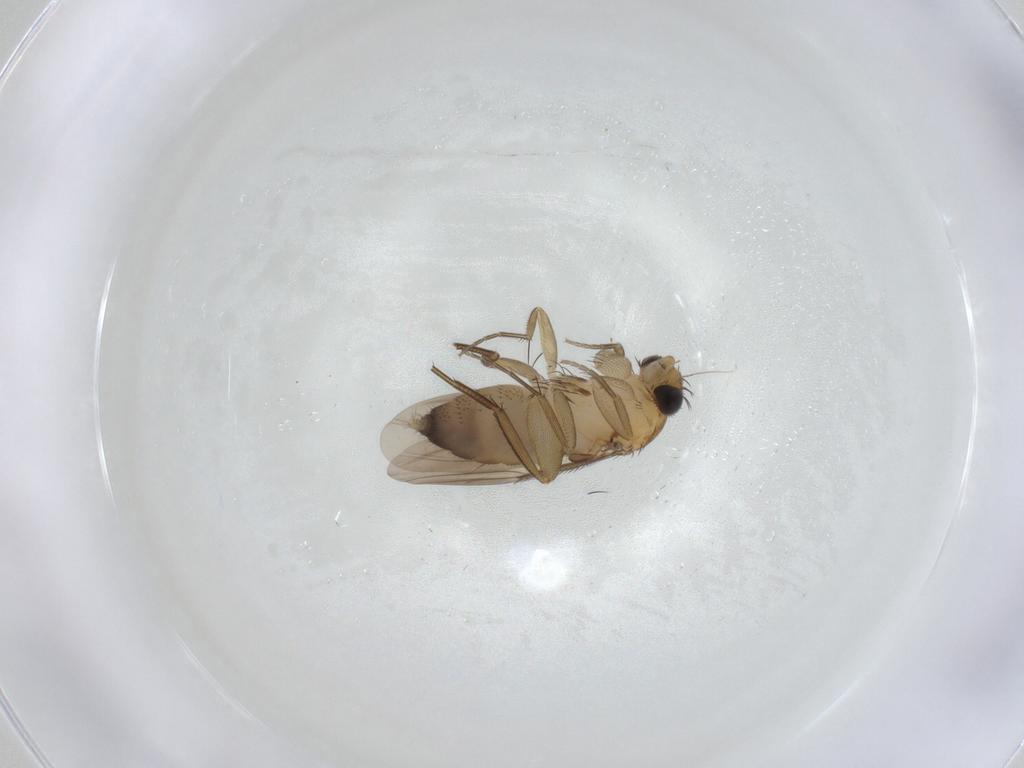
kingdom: Animalia
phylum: Arthropoda
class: Insecta
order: Diptera
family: Phoridae
